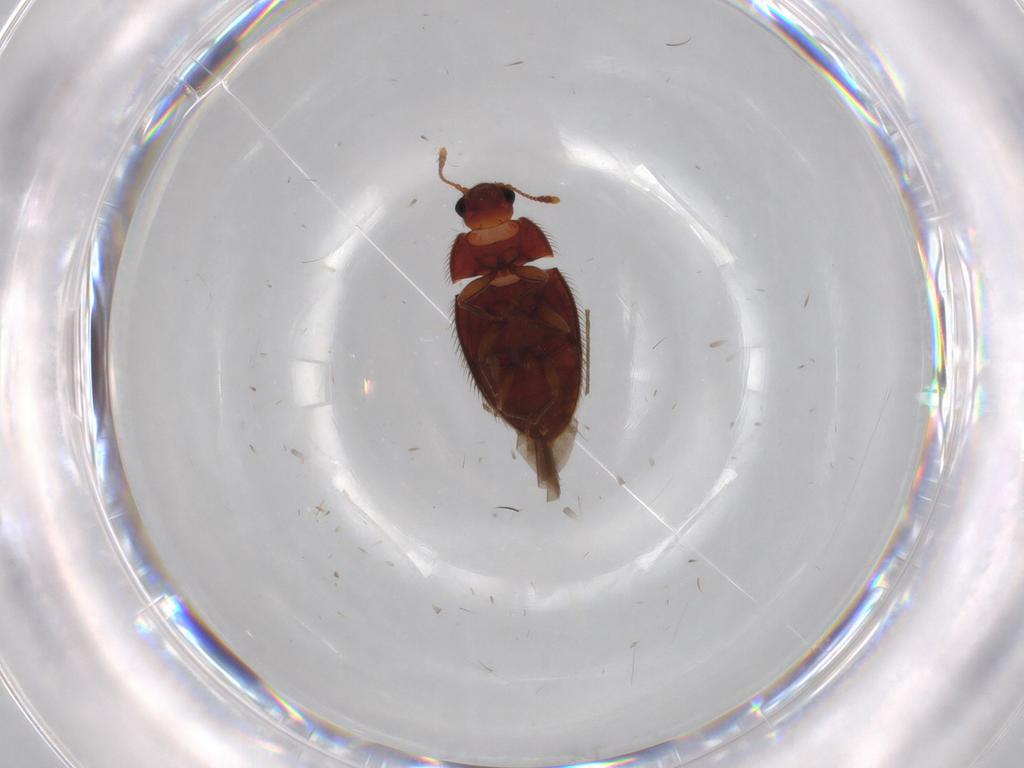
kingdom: Animalia
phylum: Arthropoda
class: Insecta
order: Coleoptera
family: Biphyllidae
